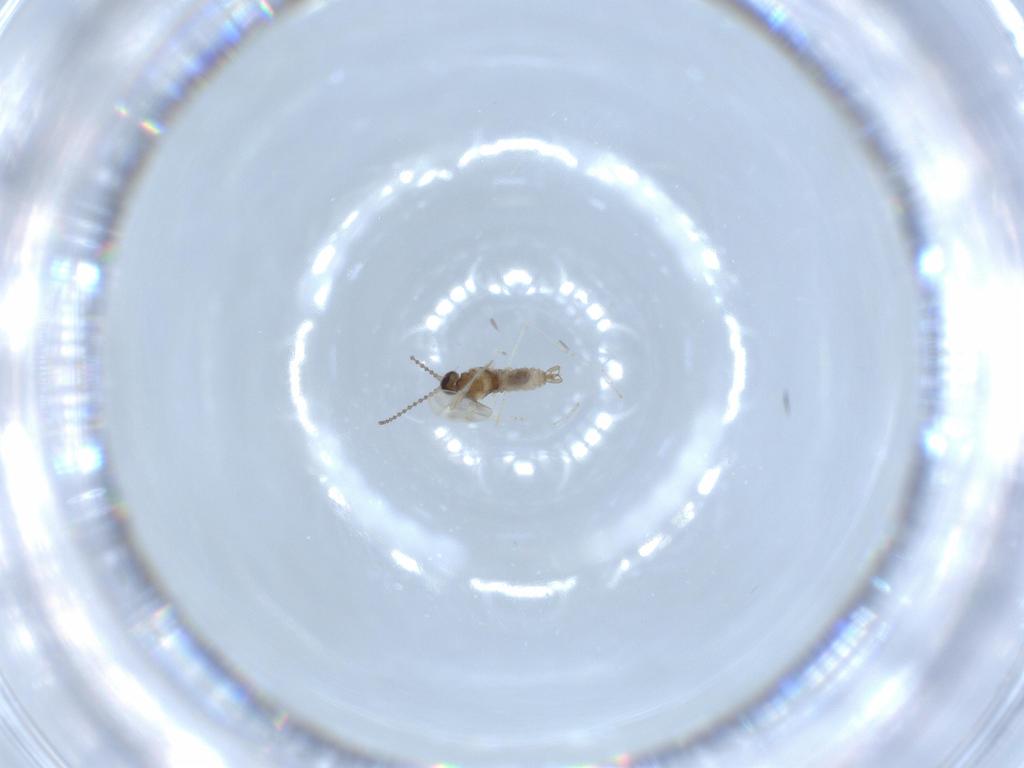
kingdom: Animalia
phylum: Arthropoda
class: Insecta
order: Diptera
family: Cecidomyiidae
